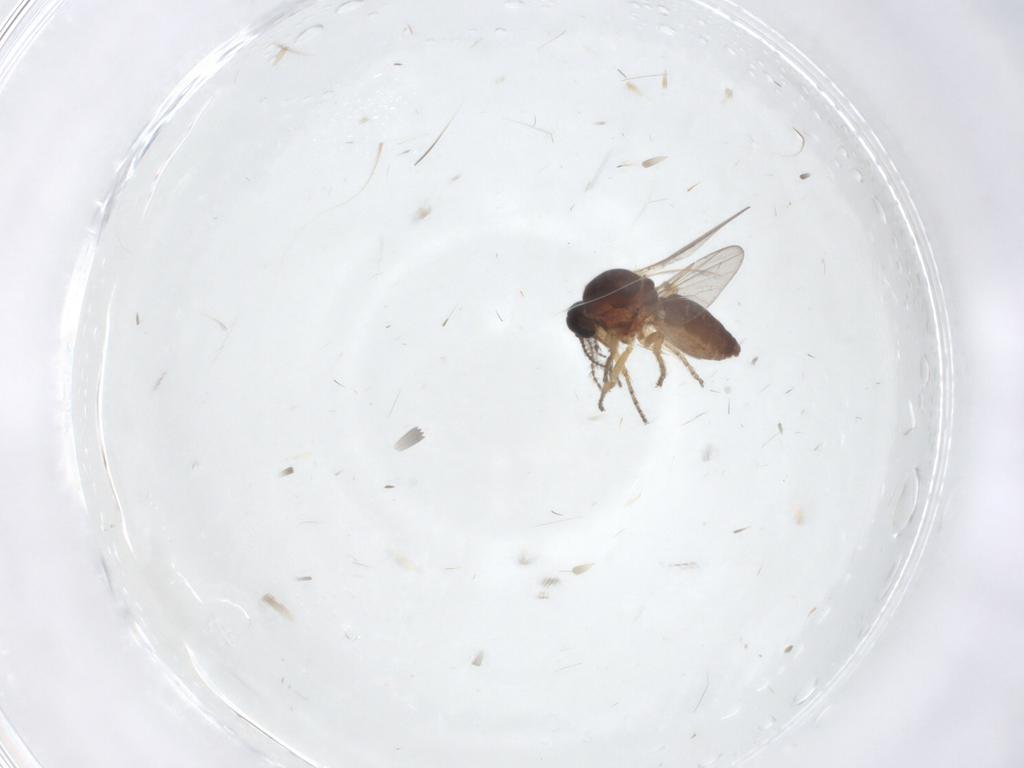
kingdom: Animalia
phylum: Arthropoda
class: Insecta
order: Diptera
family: Ceratopogonidae
